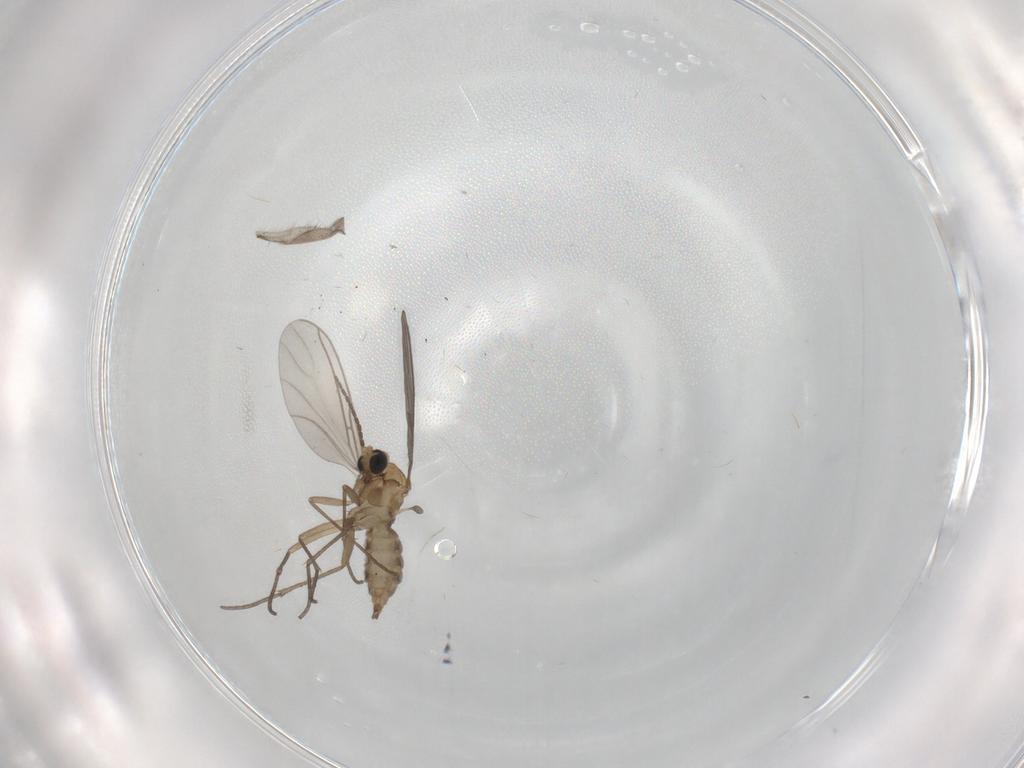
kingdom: Animalia
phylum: Arthropoda
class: Insecta
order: Diptera
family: Sciaridae
